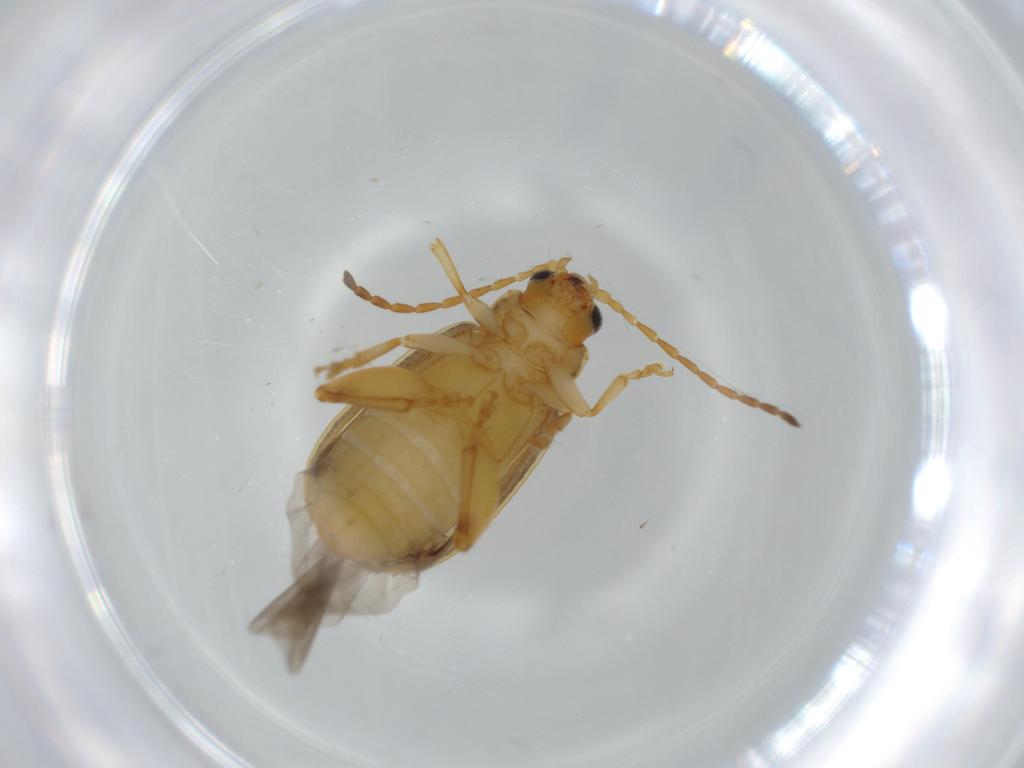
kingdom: Animalia
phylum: Arthropoda
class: Insecta
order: Coleoptera
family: Chrysomelidae
